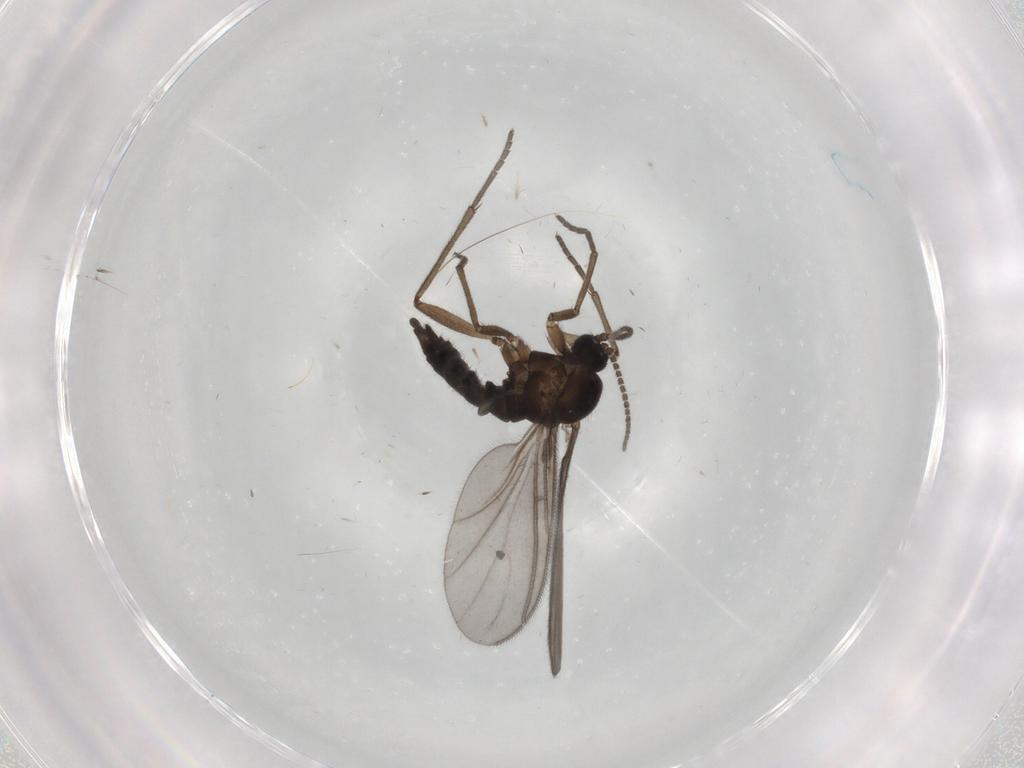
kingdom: Animalia
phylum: Arthropoda
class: Insecta
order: Diptera
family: Sciaridae
